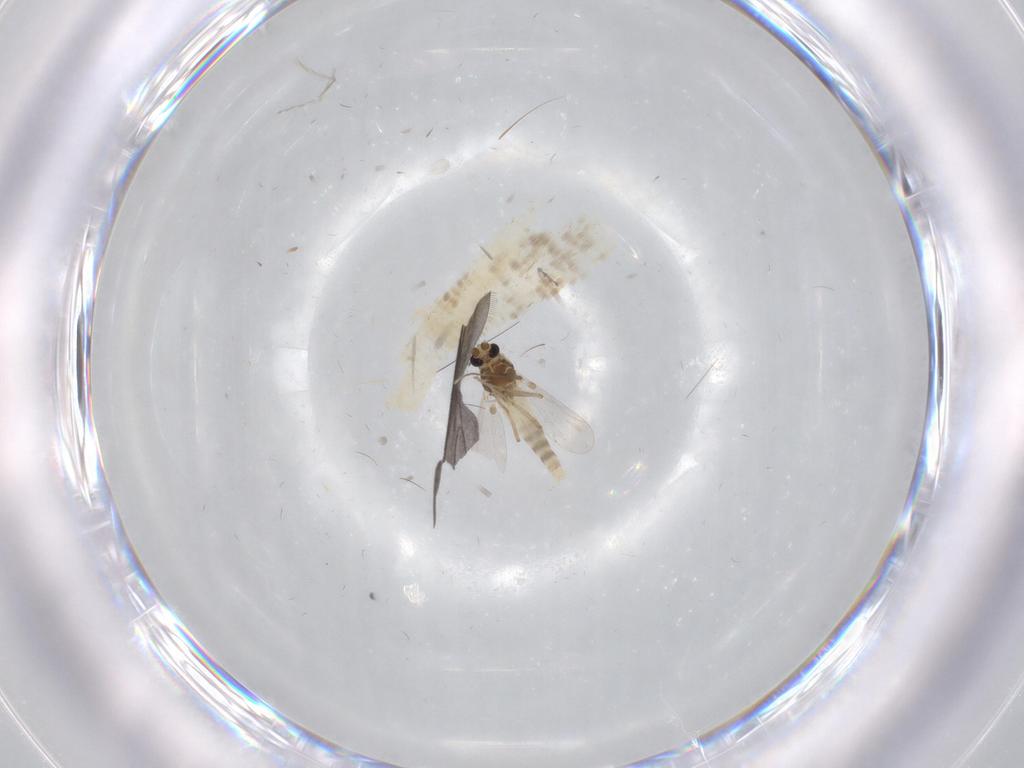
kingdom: Animalia
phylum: Arthropoda
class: Insecta
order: Diptera
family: Chironomidae
